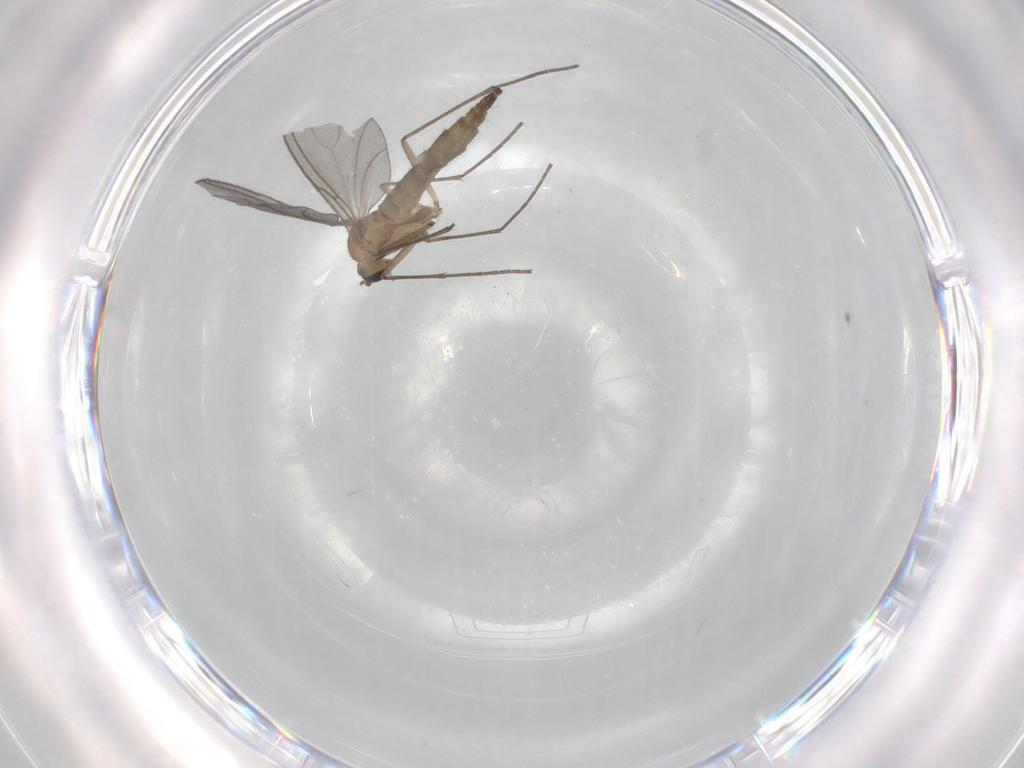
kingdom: Animalia
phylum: Arthropoda
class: Insecta
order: Diptera
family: Sciaridae
